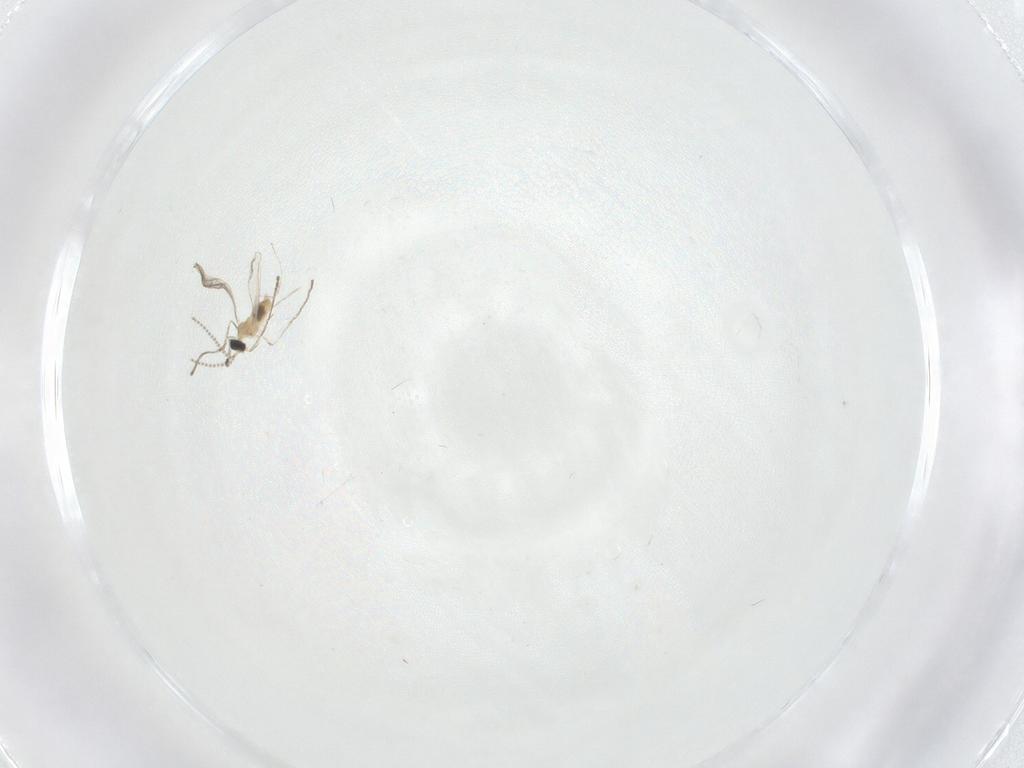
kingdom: Animalia
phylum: Arthropoda
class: Insecta
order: Diptera
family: Cecidomyiidae
